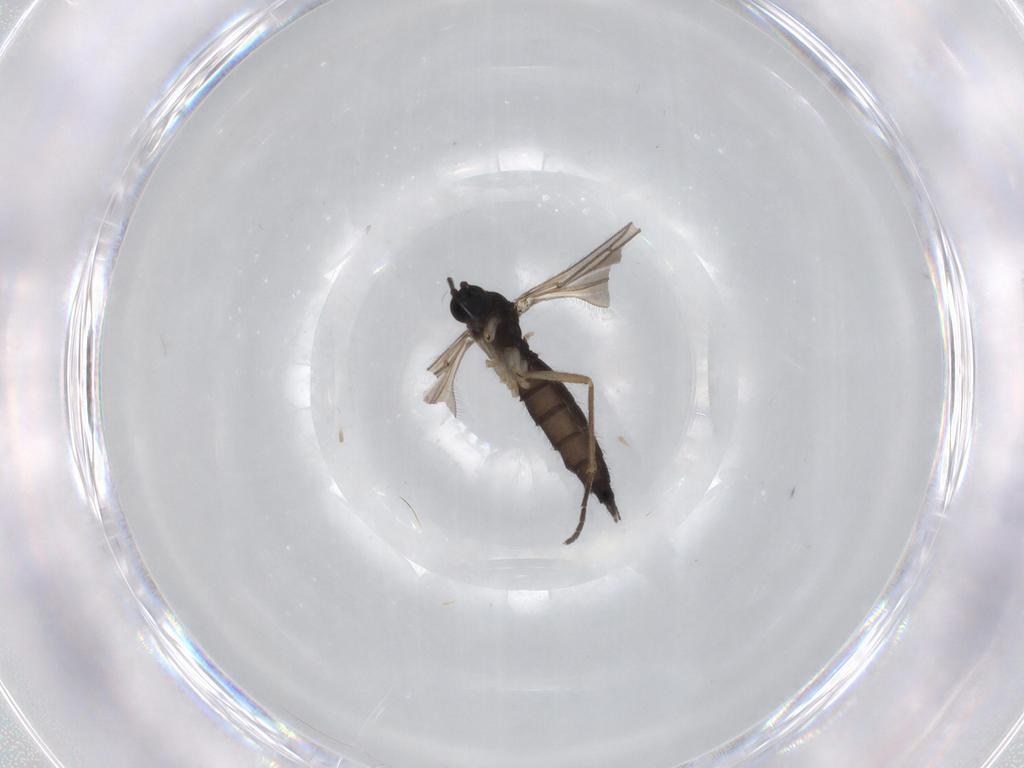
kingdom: Animalia
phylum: Arthropoda
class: Insecta
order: Diptera
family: Sciaridae
